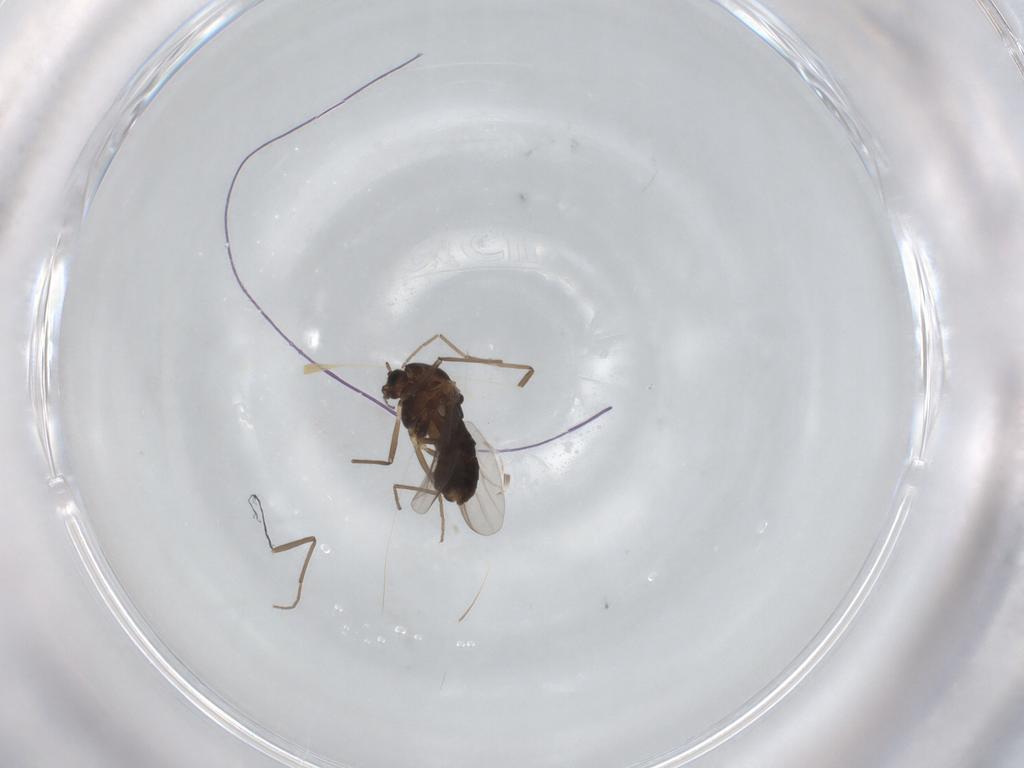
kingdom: Animalia
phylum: Arthropoda
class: Insecta
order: Diptera
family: Chironomidae
